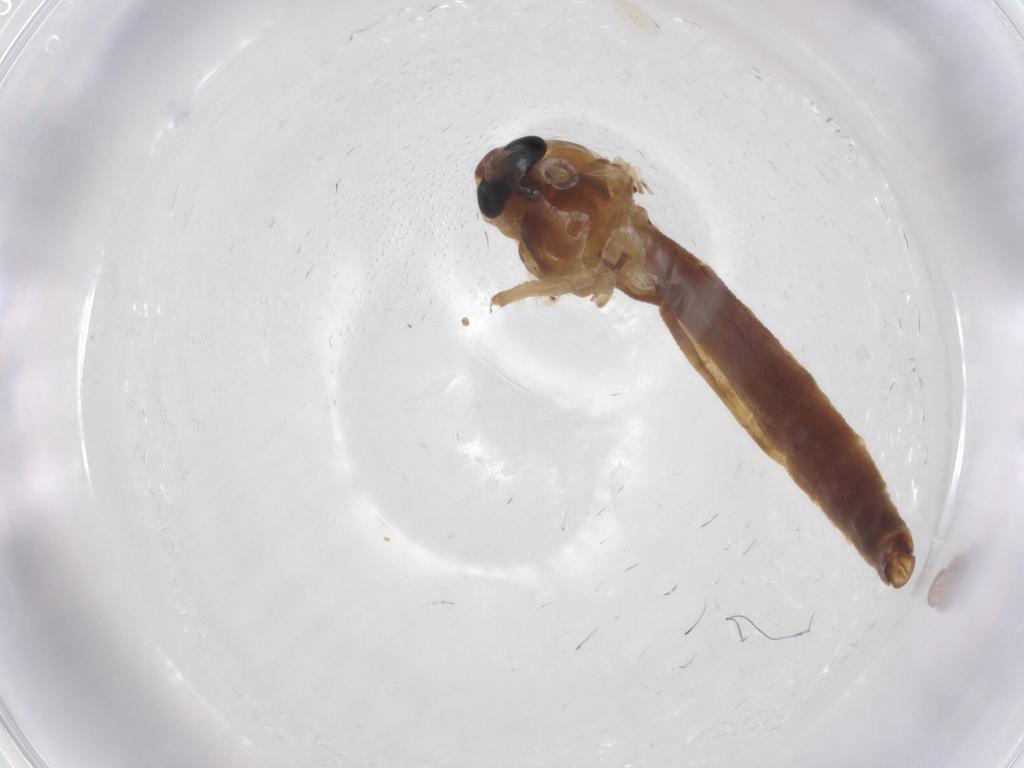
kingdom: Animalia
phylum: Arthropoda
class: Insecta
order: Diptera
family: Chironomidae
